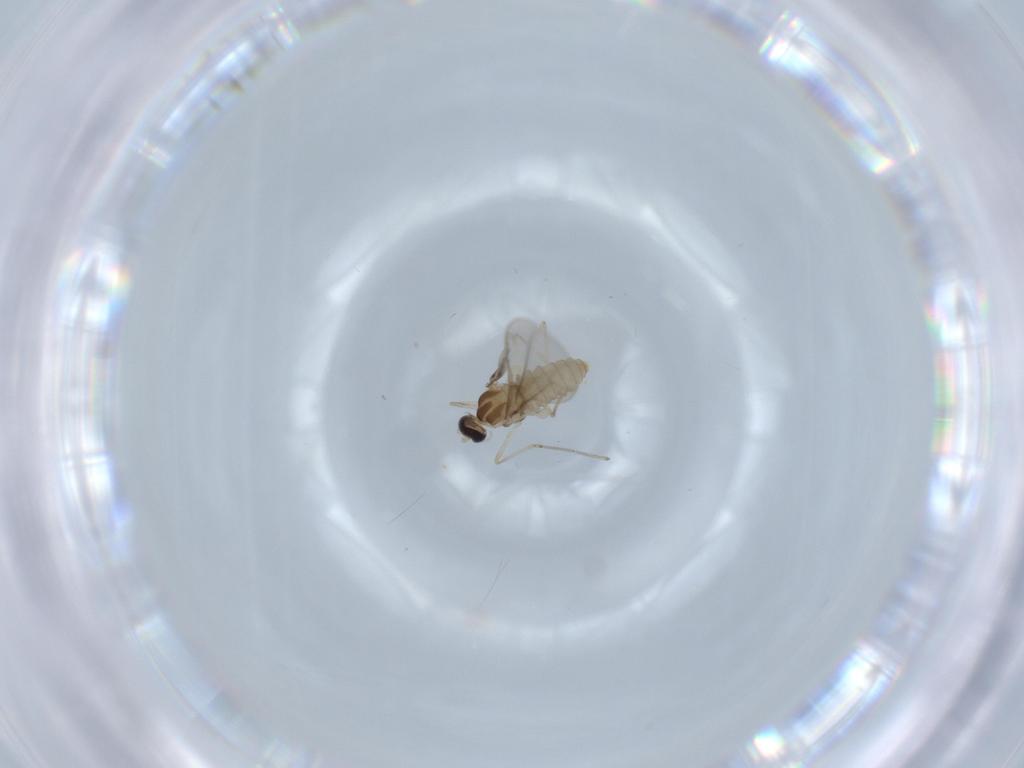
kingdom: Animalia
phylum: Arthropoda
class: Insecta
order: Diptera
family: Cecidomyiidae
